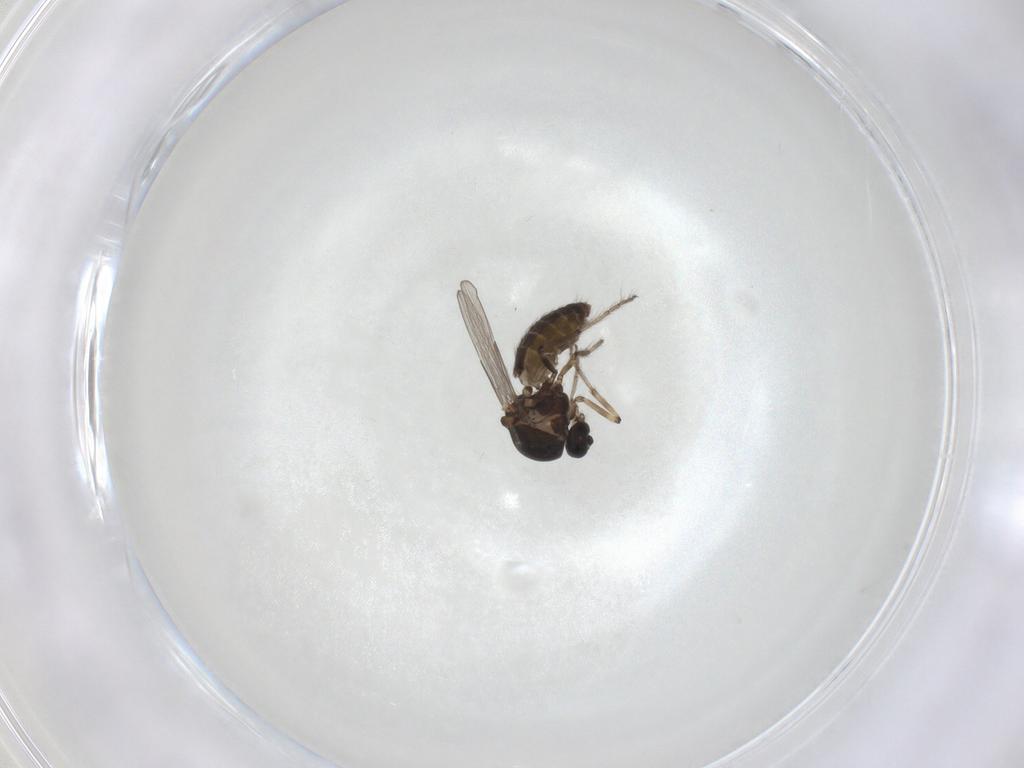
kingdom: Animalia
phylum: Arthropoda
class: Insecta
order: Diptera
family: Ceratopogonidae
